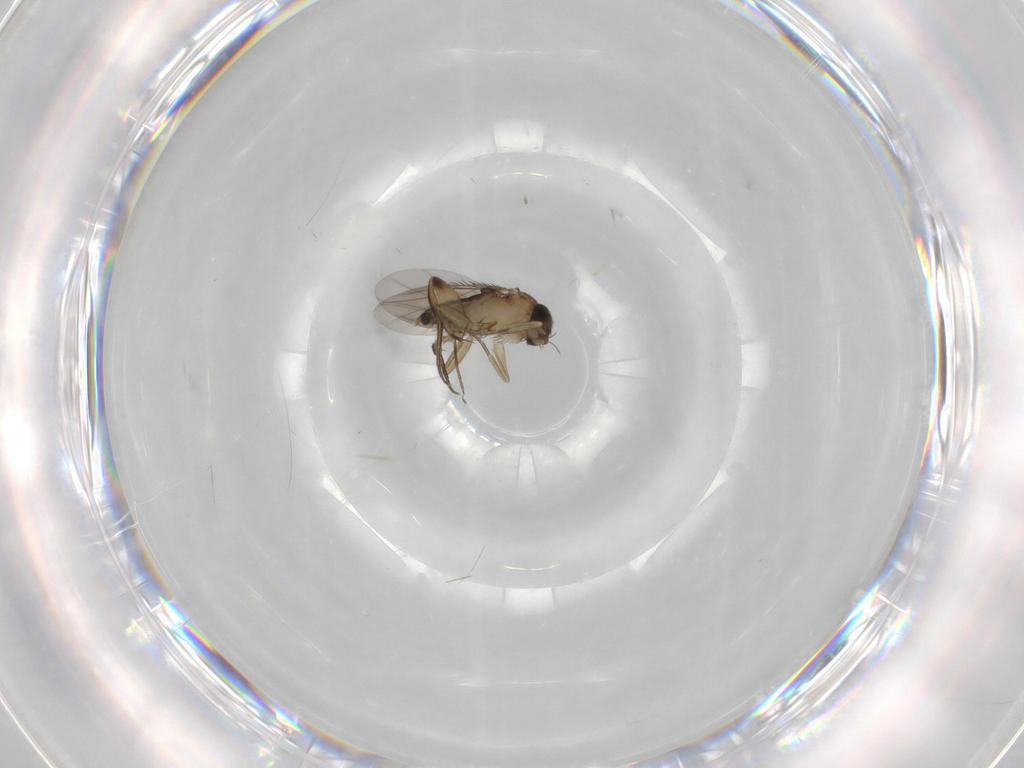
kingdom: Animalia
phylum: Arthropoda
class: Insecta
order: Diptera
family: Phoridae
